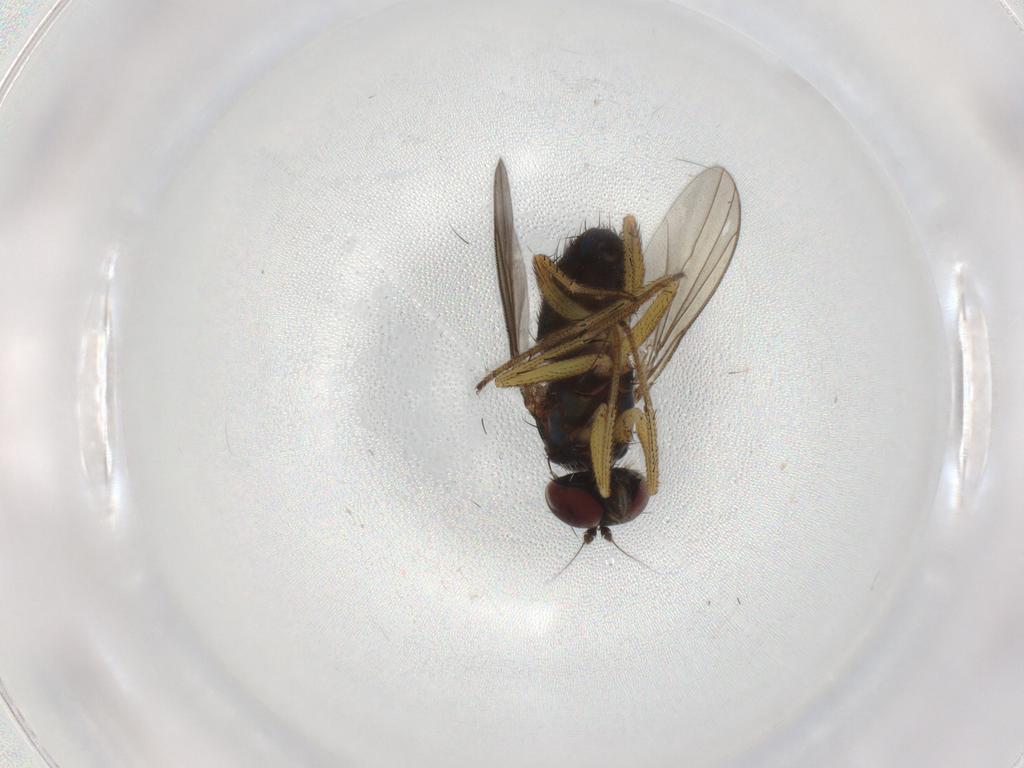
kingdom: Animalia
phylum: Arthropoda
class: Insecta
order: Diptera
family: Dolichopodidae
